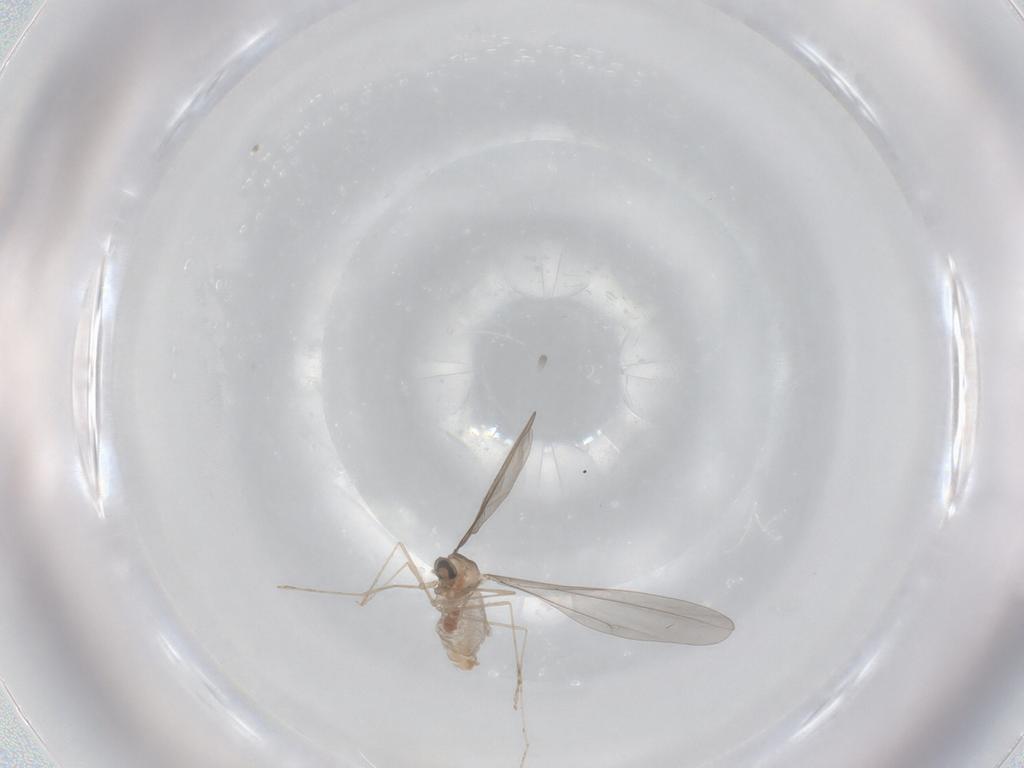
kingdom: Animalia
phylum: Arthropoda
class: Insecta
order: Diptera
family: Cecidomyiidae
